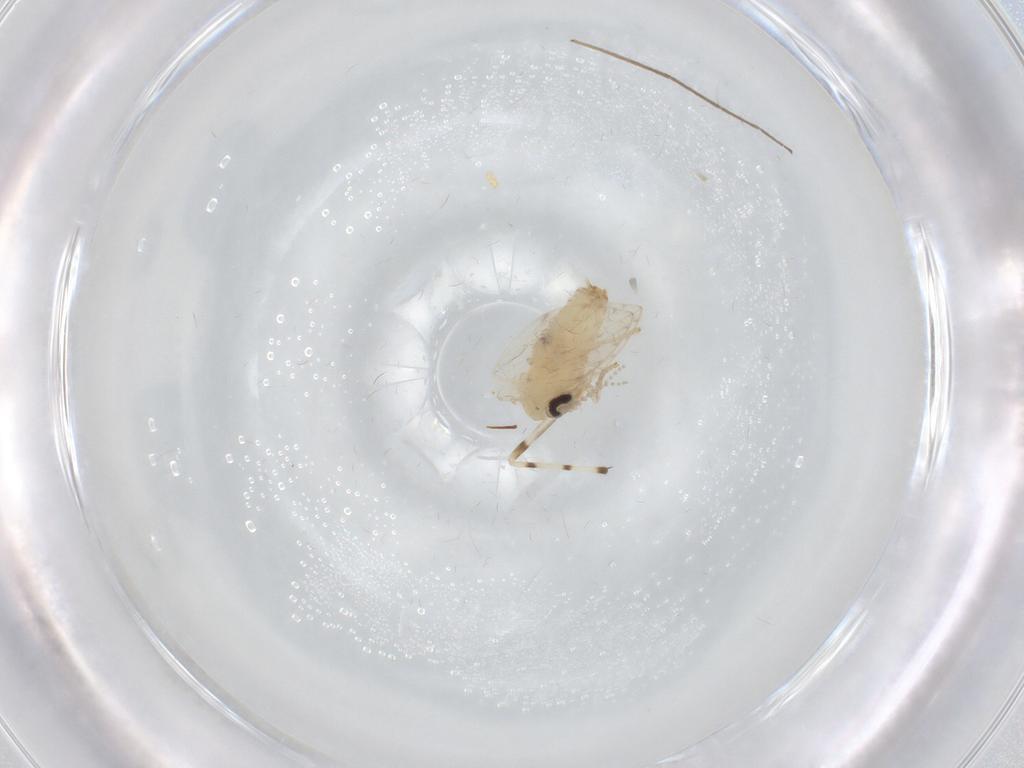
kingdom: Animalia
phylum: Arthropoda
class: Insecta
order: Diptera
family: Psychodidae
